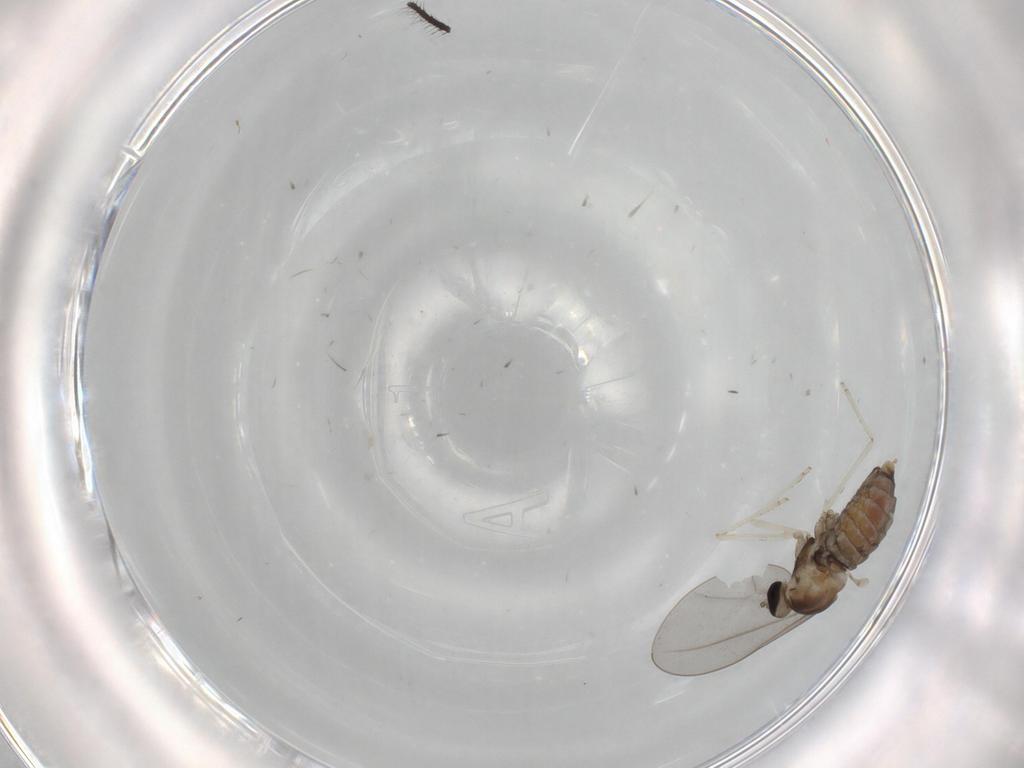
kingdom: Animalia
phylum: Arthropoda
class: Insecta
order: Diptera
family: Cecidomyiidae
